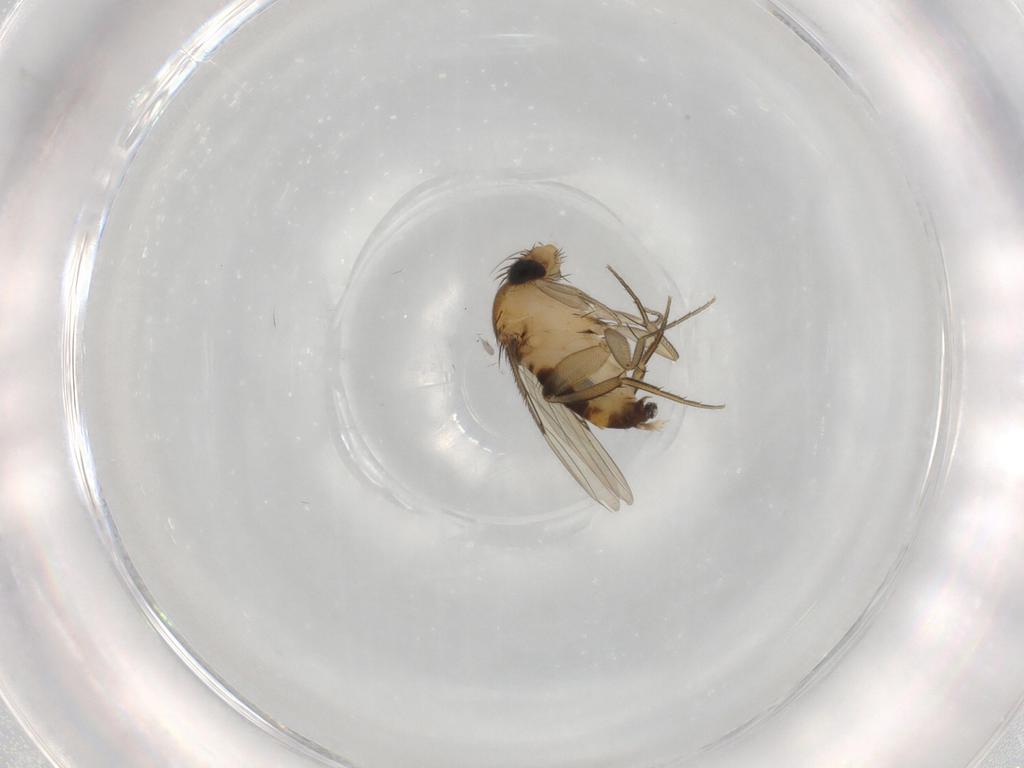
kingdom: Animalia
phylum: Arthropoda
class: Insecta
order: Diptera
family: Phoridae
